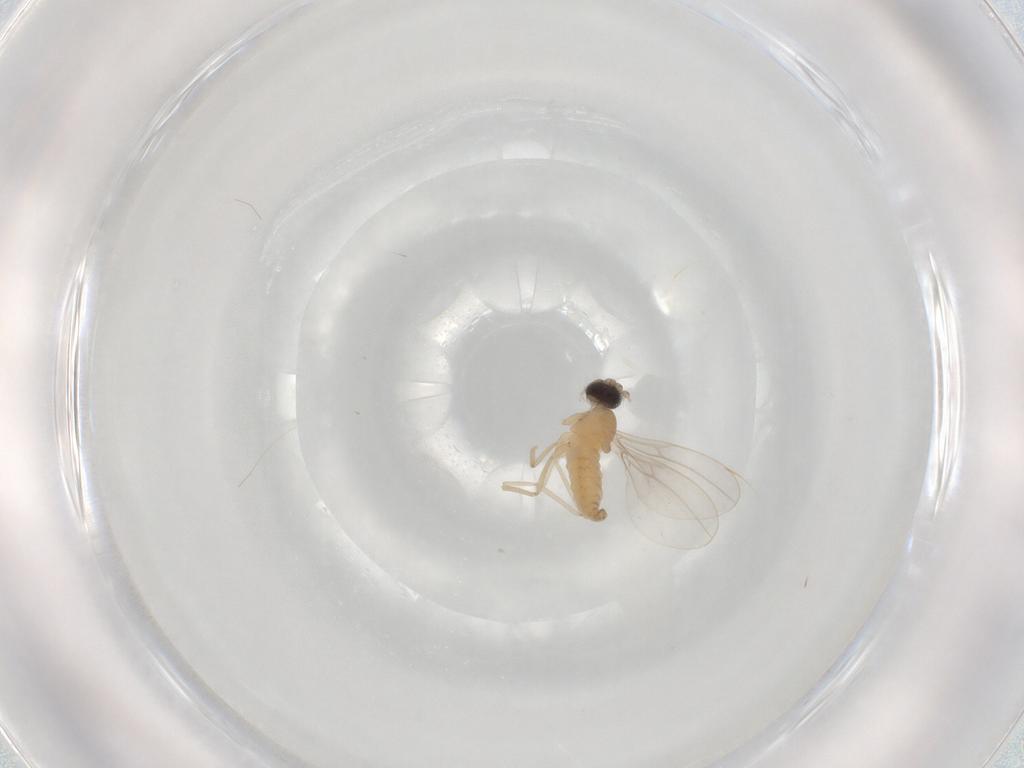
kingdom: Animalia
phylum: Arthropoda
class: Insecta
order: Diptera
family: Cecidomyiidae
